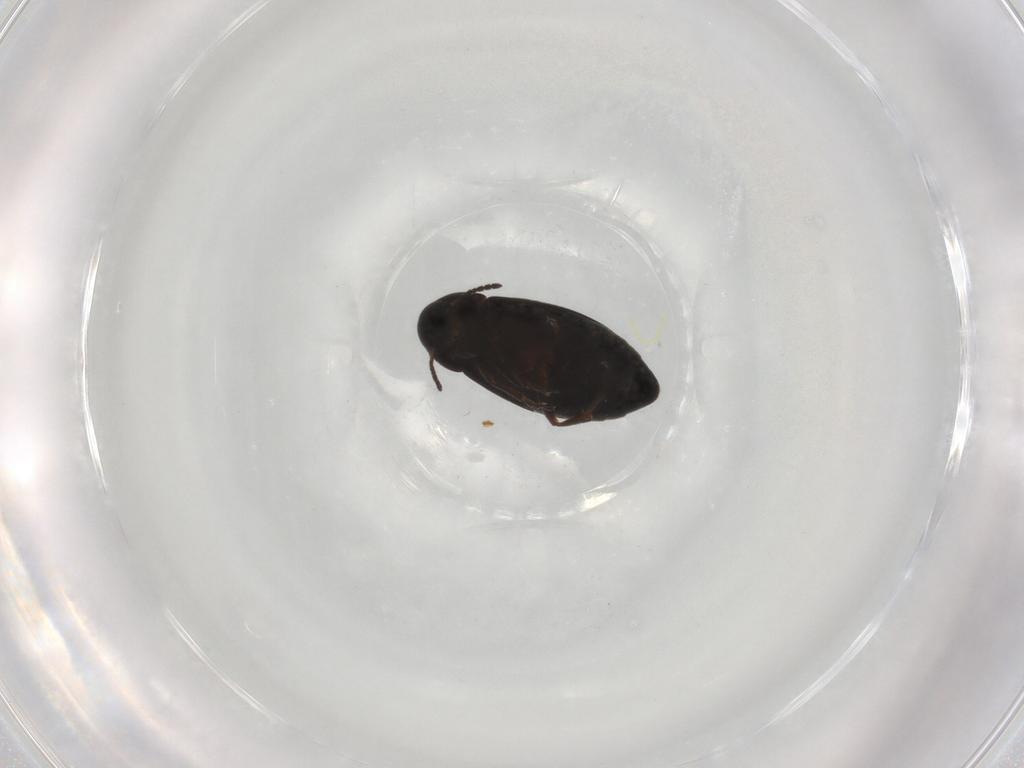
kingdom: Animalia
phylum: Arthropoda
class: Insecta
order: Coleoptera
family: Scraptiidae
